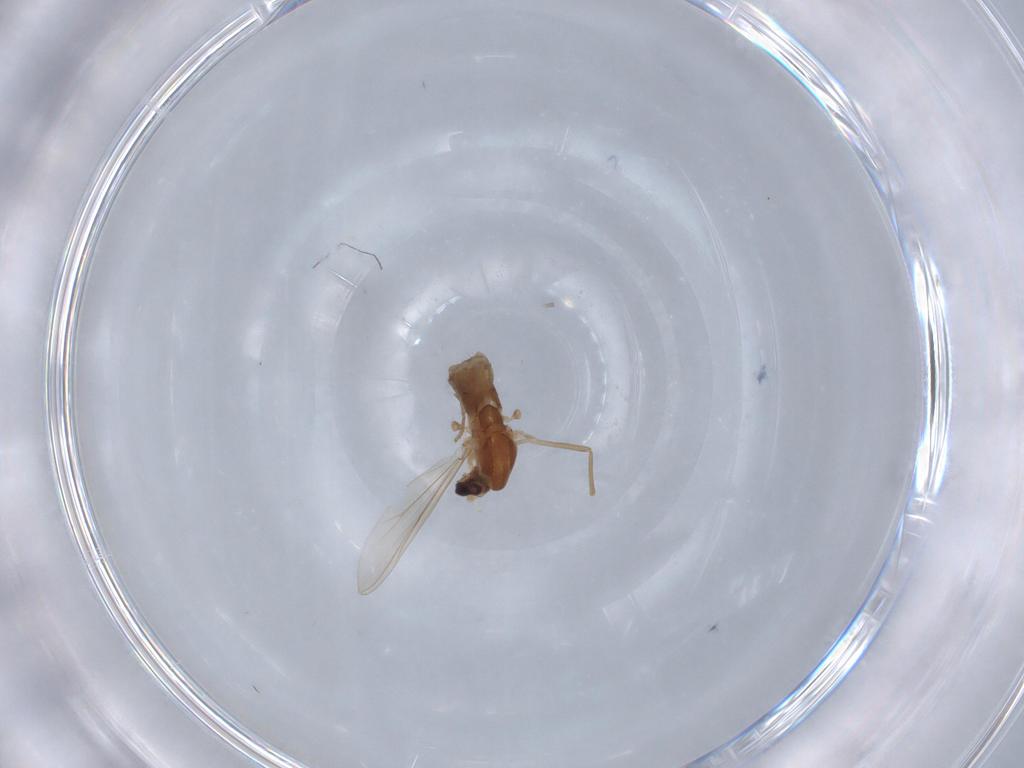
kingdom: Animalia
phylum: Arthropoda
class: Insecta
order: Diptera
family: Chironomidae
